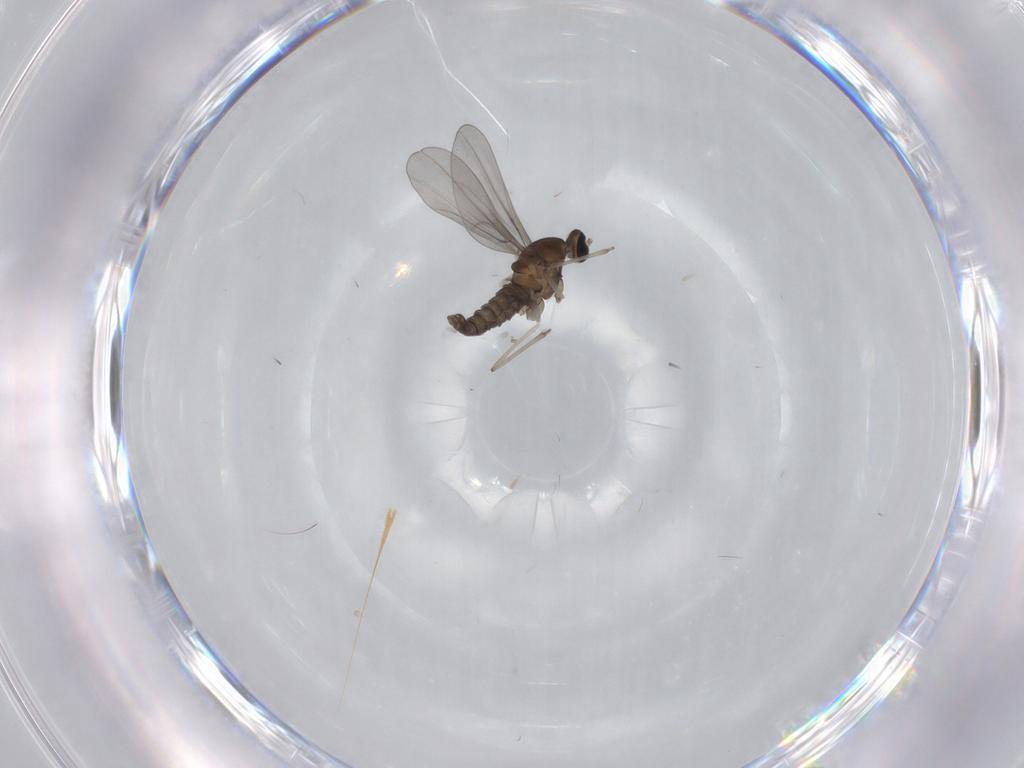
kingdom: Animalia
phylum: Arthropoda
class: Insecta
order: Diptera
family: Cecidomyiidae
